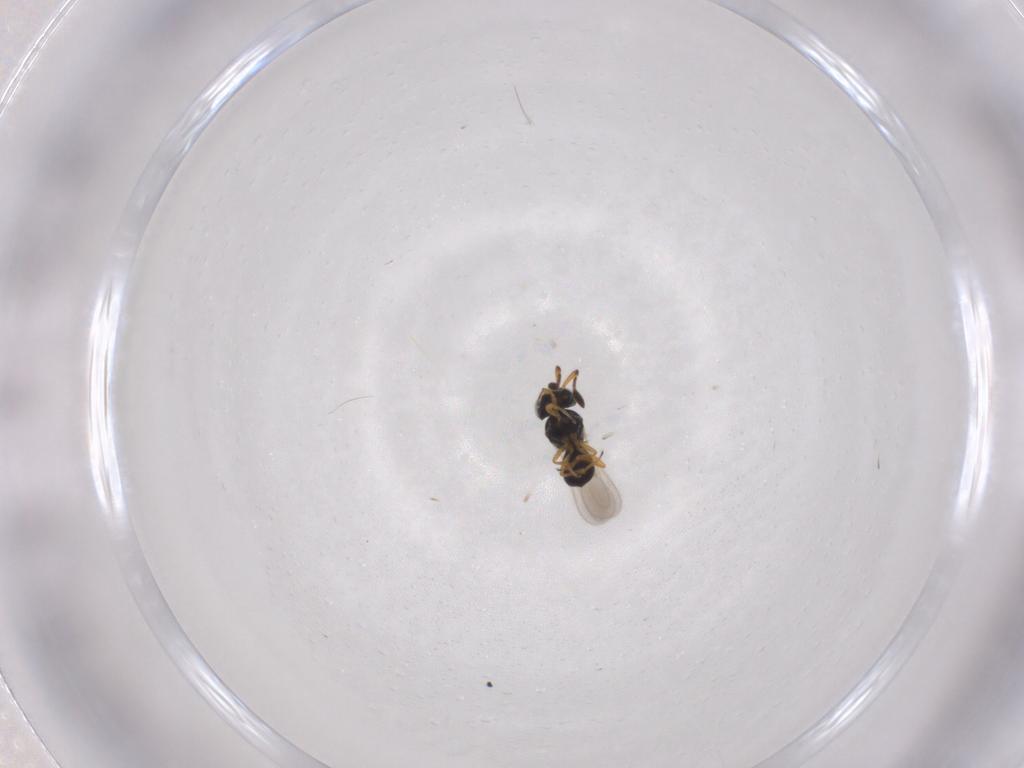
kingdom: Animalia
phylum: Arthropoda
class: Insecta
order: Hymenoptera
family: Scelionidae
